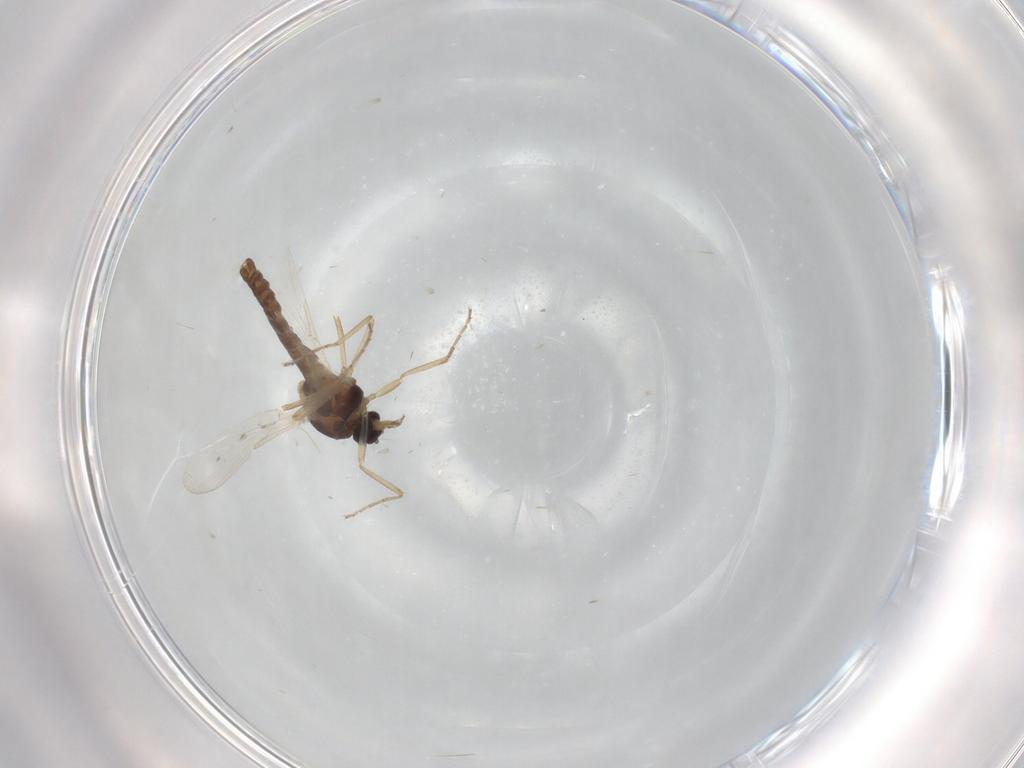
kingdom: Animalia
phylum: Arthropoda
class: Insecta
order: Diptera
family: Ceratopogonidae
